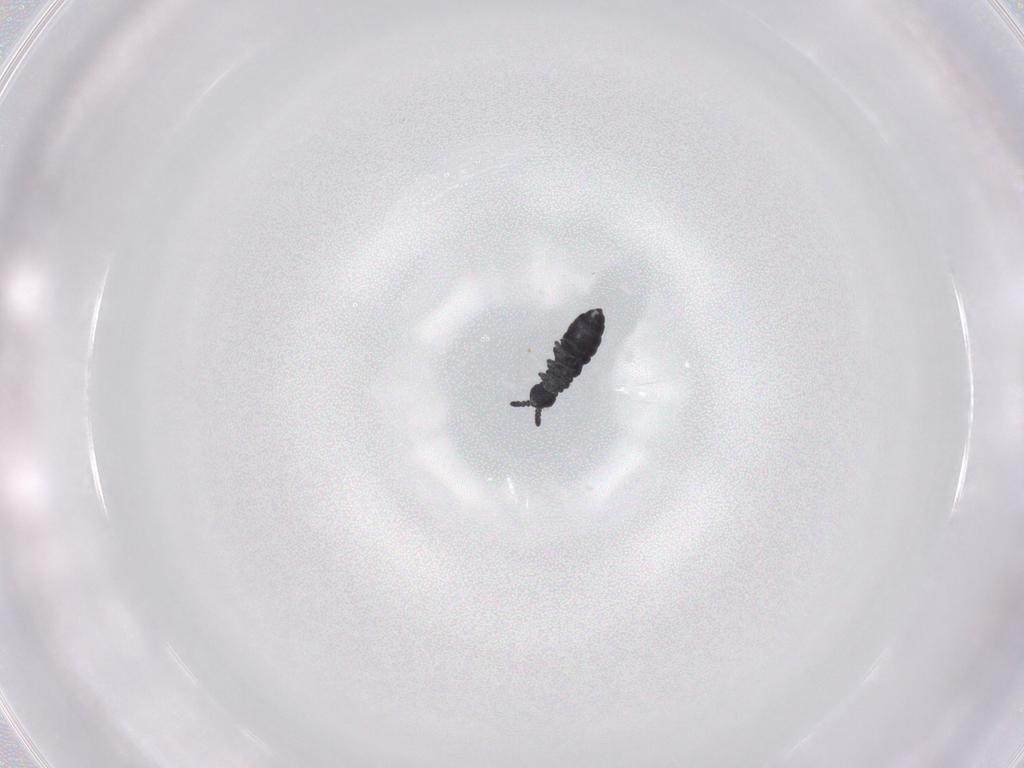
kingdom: Animalia
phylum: Arthropoda
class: Collembola
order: Poduromorpha
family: Hypogastruridae
